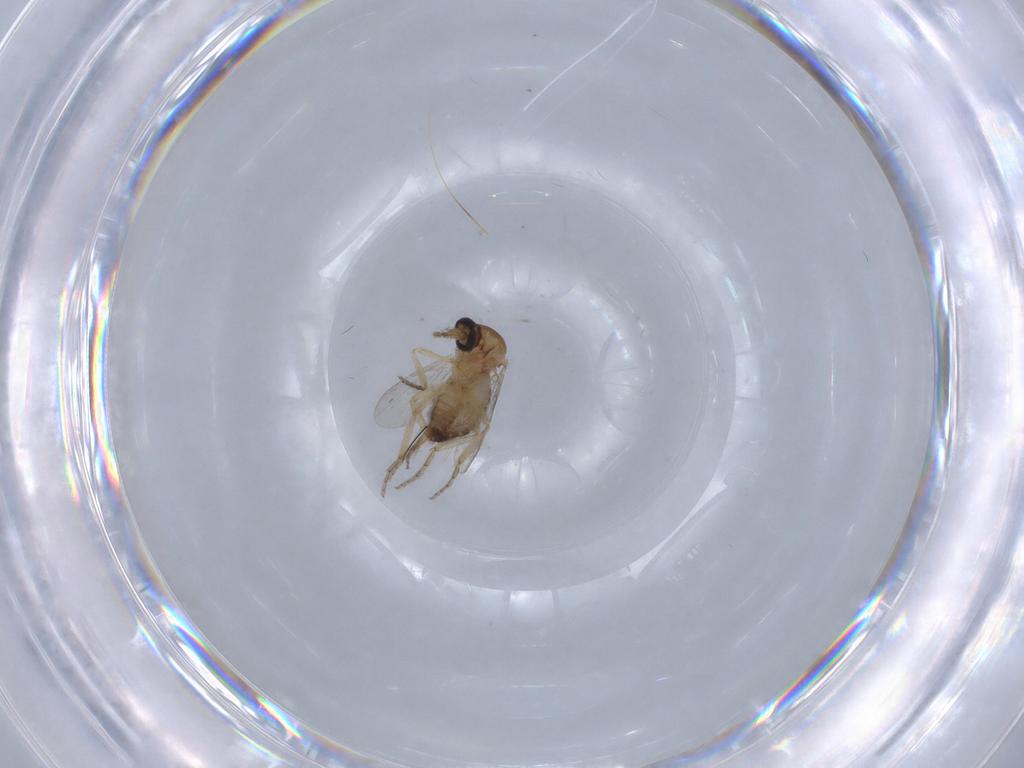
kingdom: Animalia
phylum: Arthropoda
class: Insecta
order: Diptera
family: Ceratopogonidae
